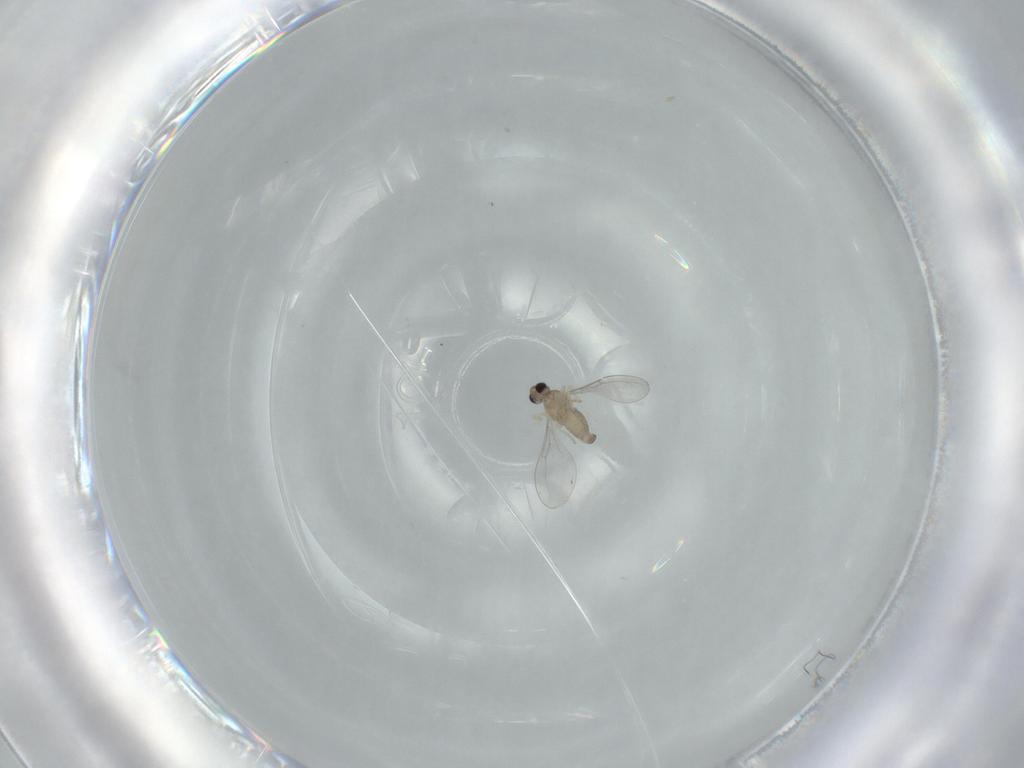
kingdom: Animalia
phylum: Arthropoda
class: Insecta
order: Diptera
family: Cecidomyiidae
